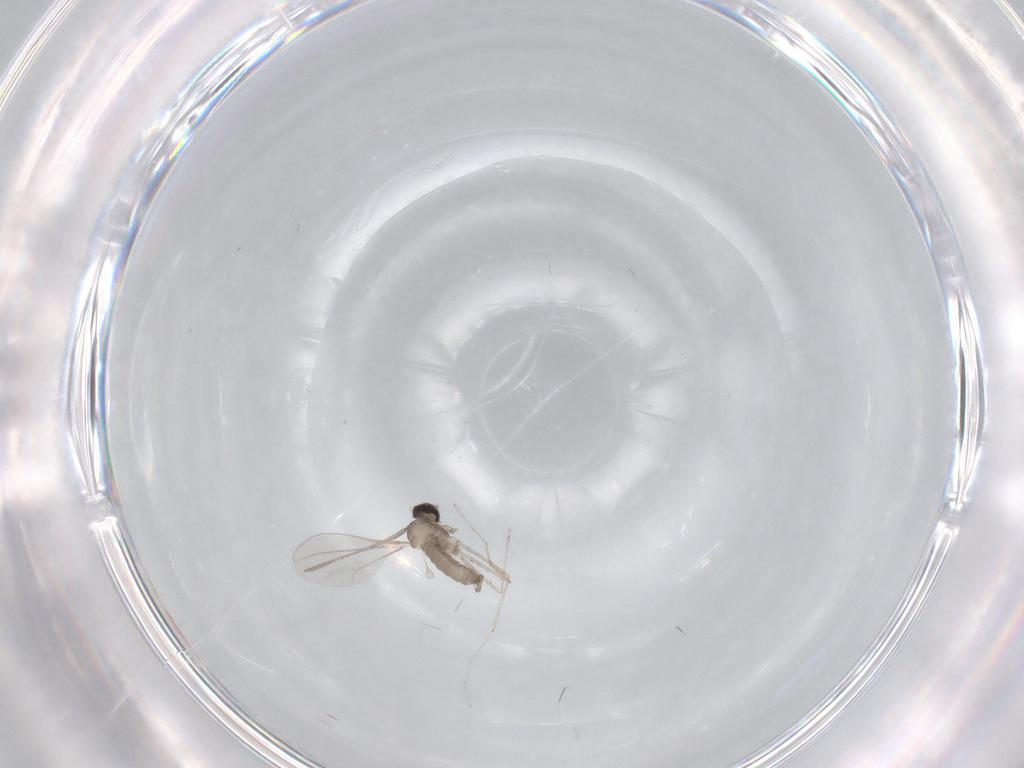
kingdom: Animalia
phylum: Arthropoda
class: Insecta
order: Diptera
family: Cecidomyiidae
